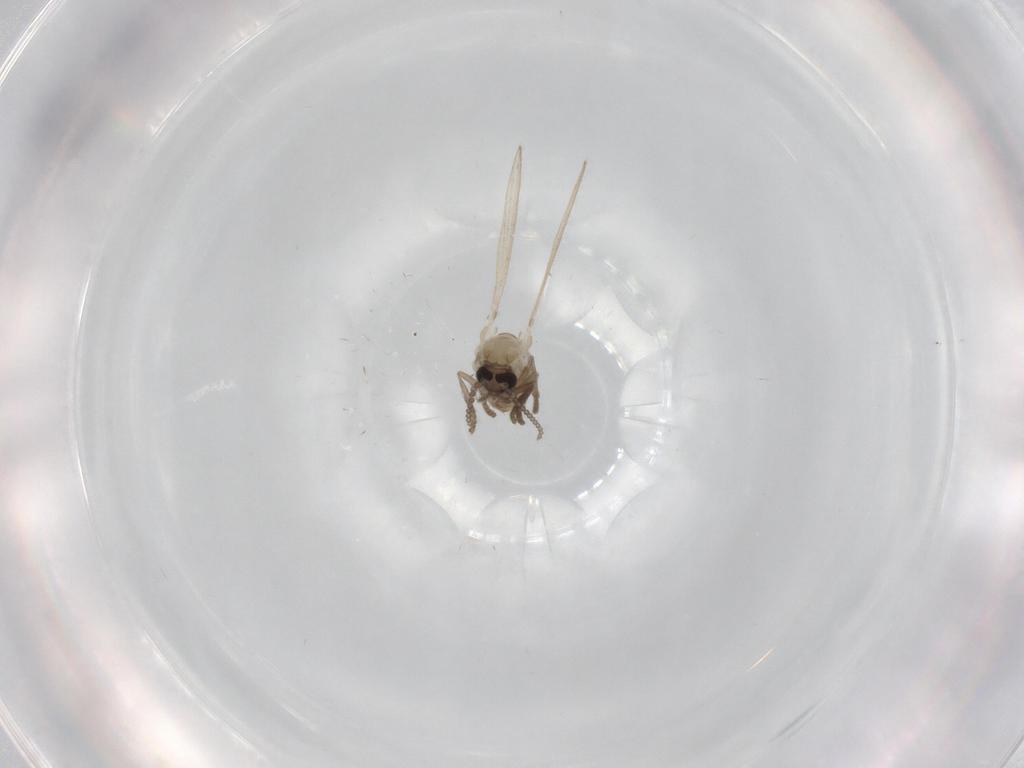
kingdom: Animalia
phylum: Arthropoda
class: Insecta
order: Diptera
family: Psychodidae
